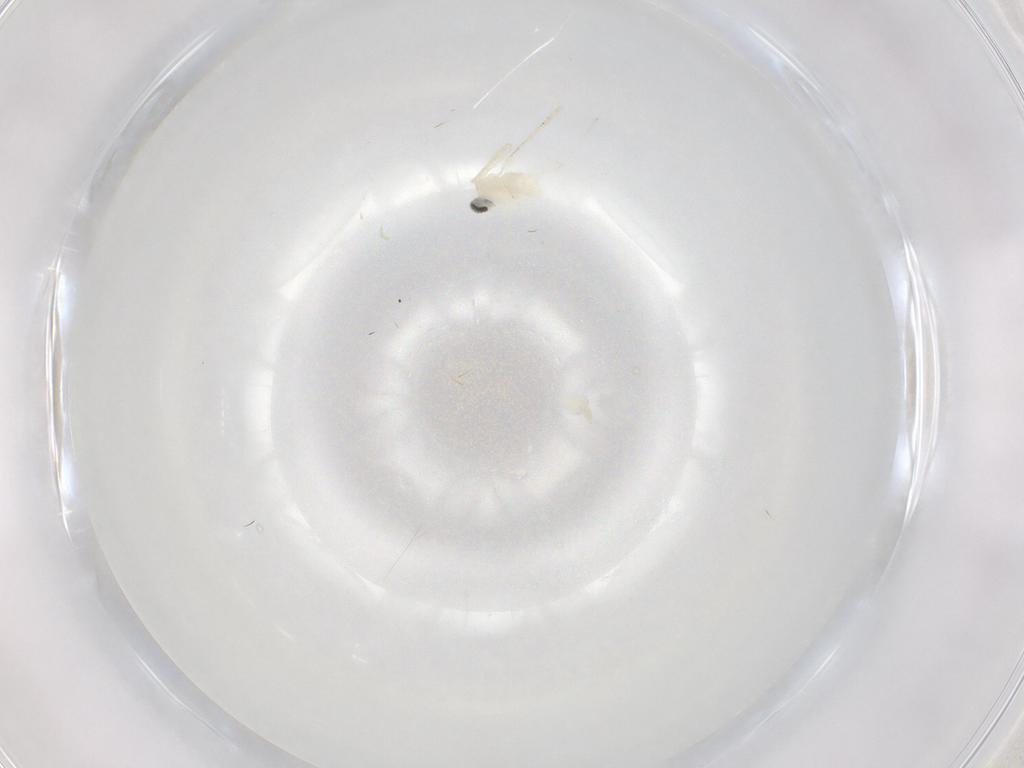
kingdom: Animalia
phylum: Arthropoda
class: Insecta
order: Diptera
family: Cecidomyiidae
